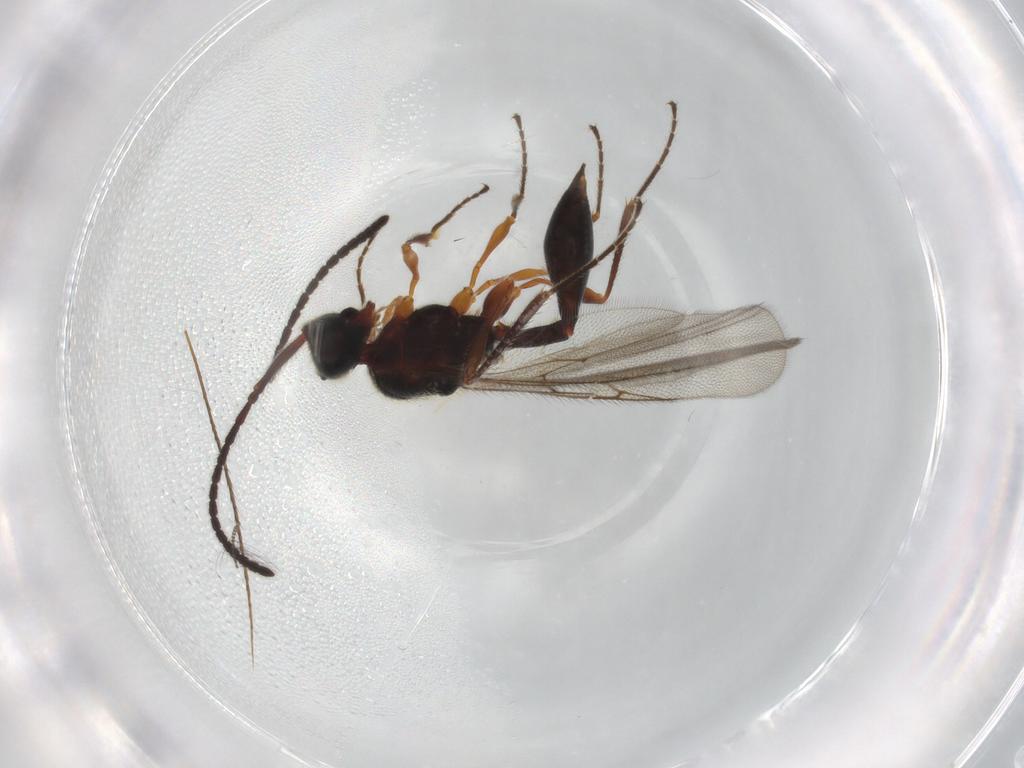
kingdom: Animalia
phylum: Arthropoda
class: Insecta
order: Hymenoptera
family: Diapriidae
